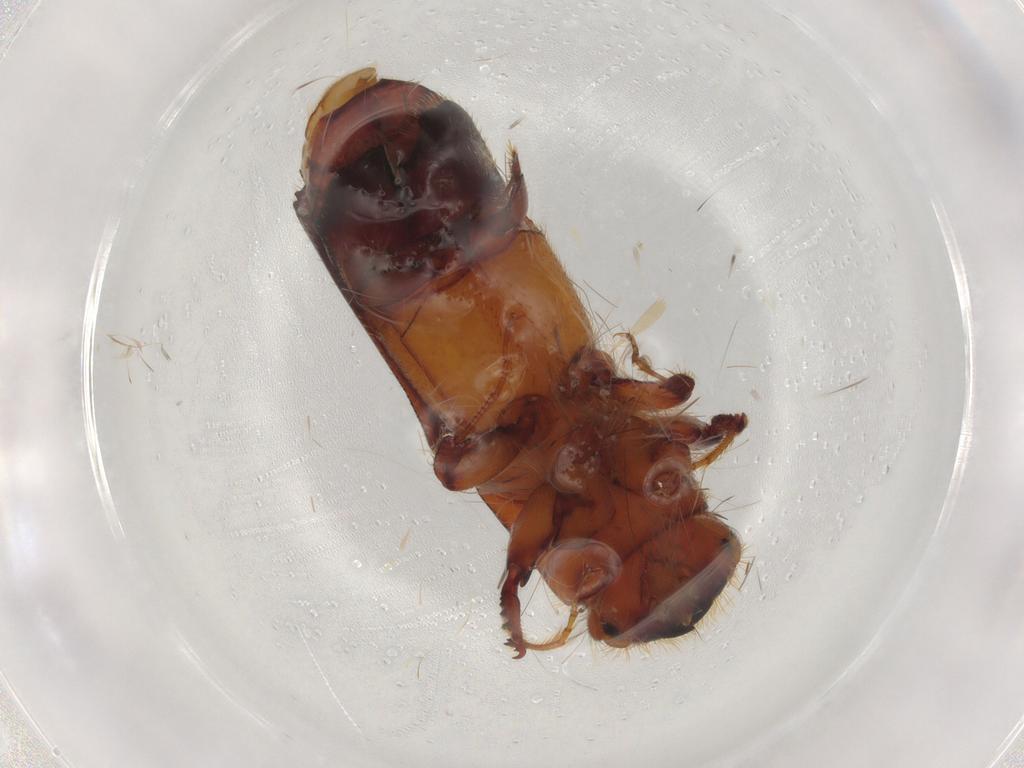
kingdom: Animalia
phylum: Arthropoda
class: Insecta
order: Coleoptera
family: Curculionidae
